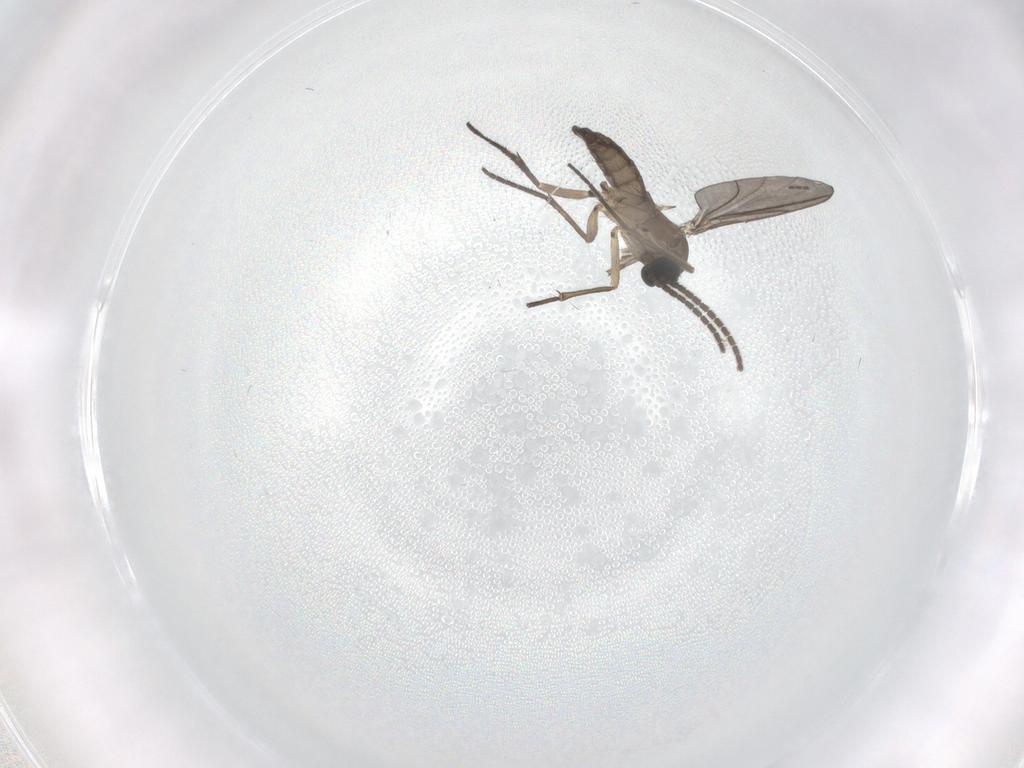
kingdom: Animalia
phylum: Arthropoda
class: Insecta
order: Diptera
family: Sciaridae
